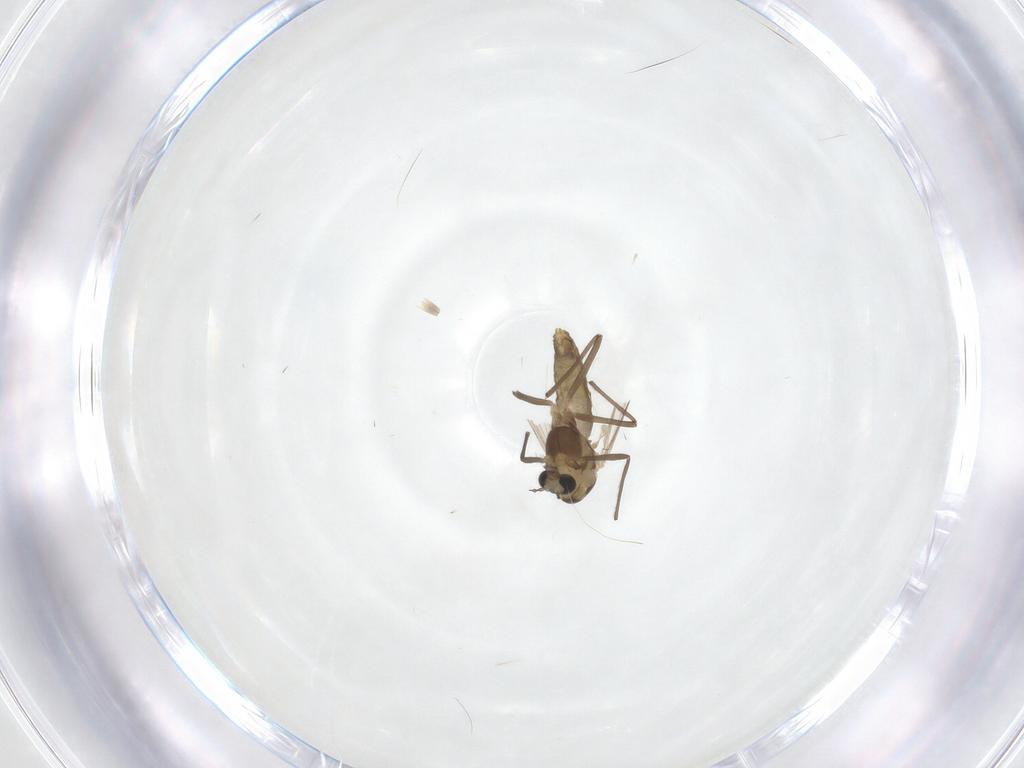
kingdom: Animalia
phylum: Arthropoda
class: Insecta
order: Diptera
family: Chironomidae
